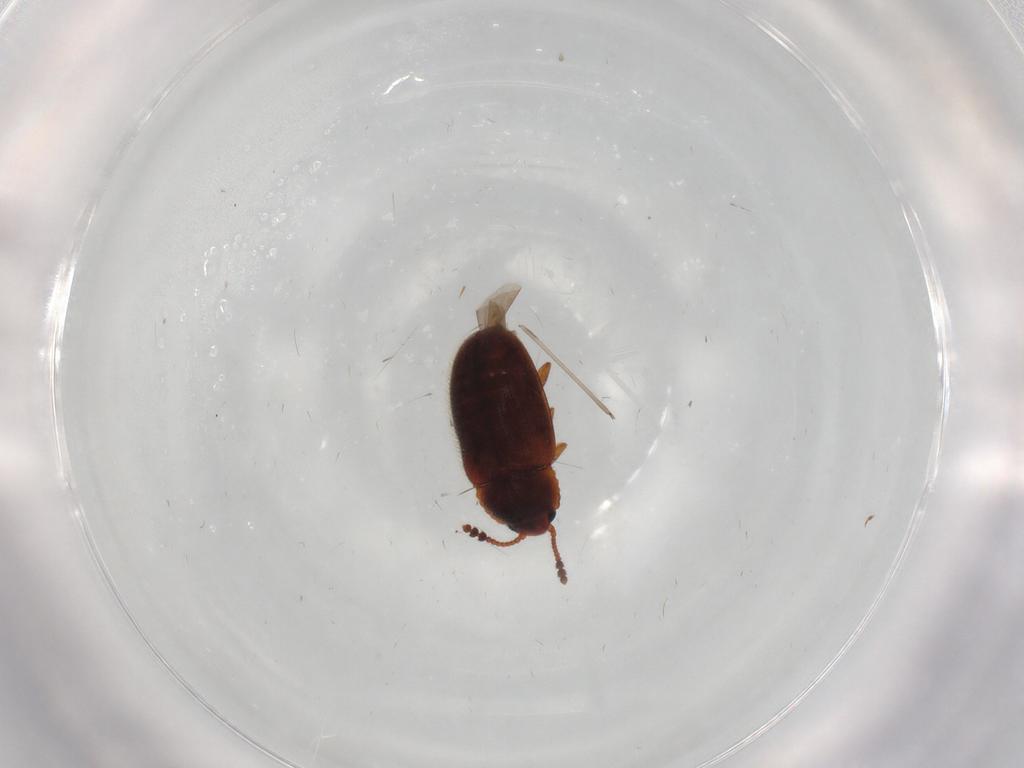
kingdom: Animalia
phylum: Arthropoda
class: Insecta
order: Coleoptera
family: Erotylidae
